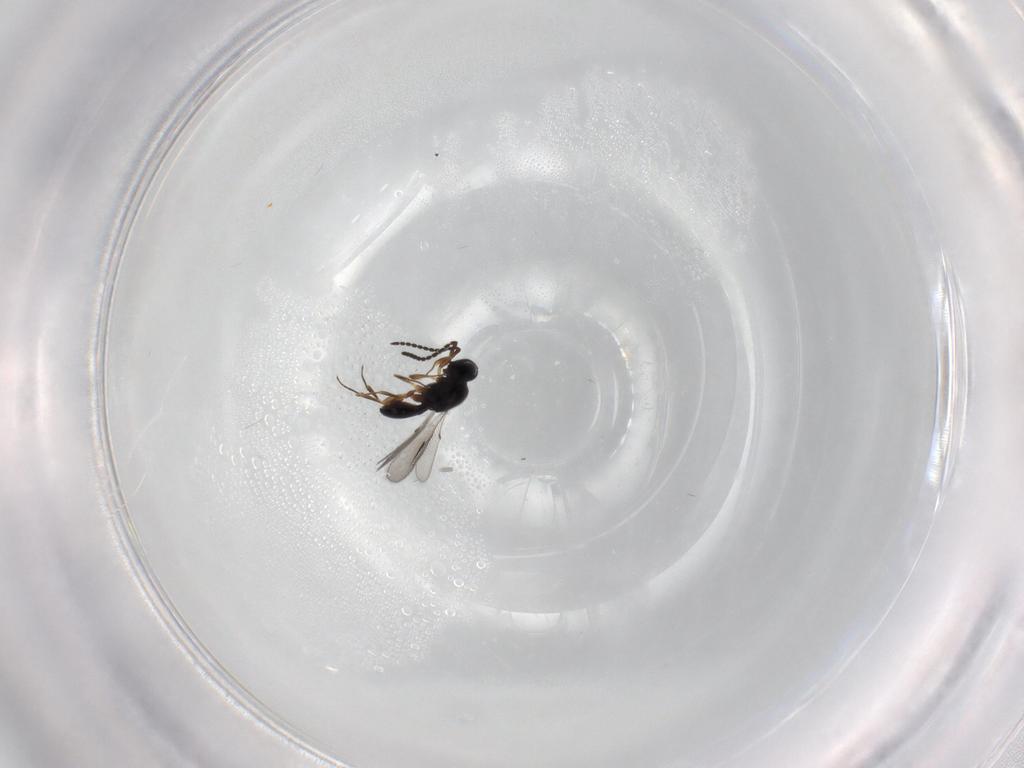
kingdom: Animalia
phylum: Arthropoda
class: Insecta
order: Hymenoptera
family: Scelionidae
